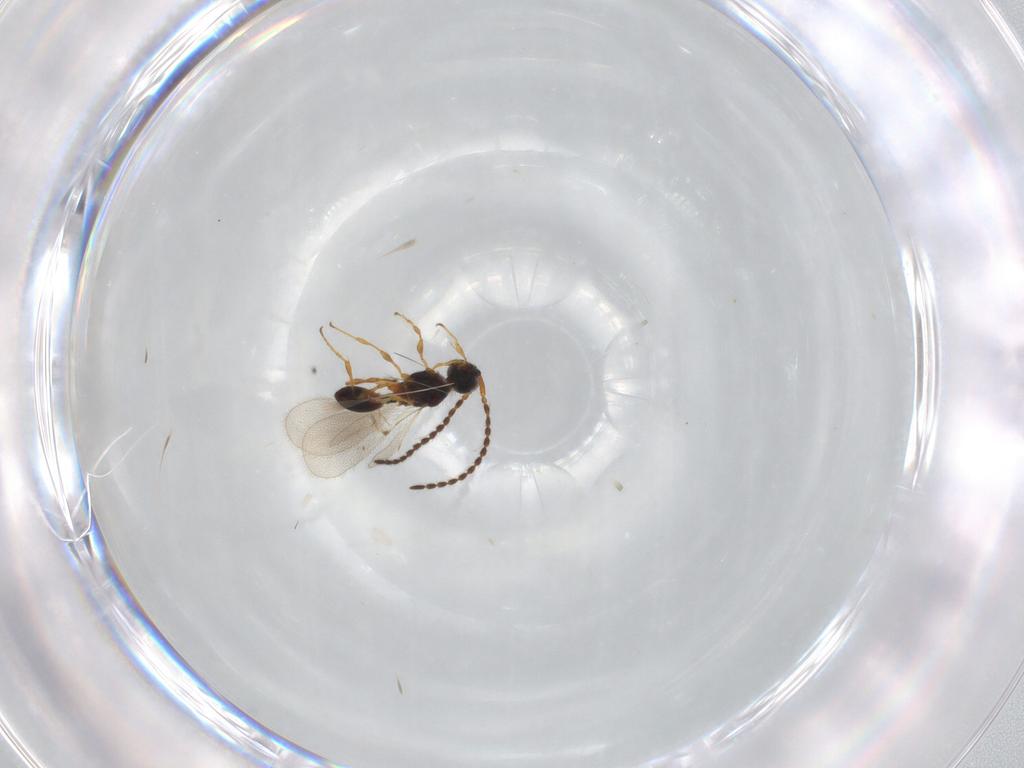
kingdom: Animalia
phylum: Arthropoda
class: Insecta
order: Hymenoptera
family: Diapriidae
